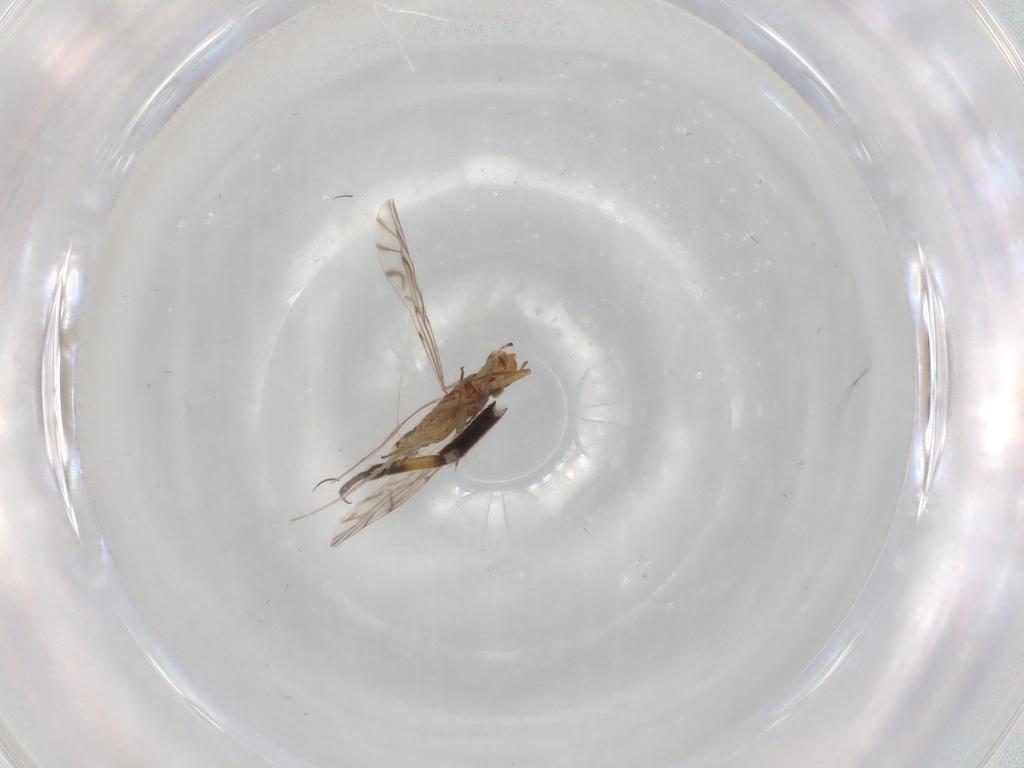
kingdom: Animalia
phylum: Arthropoda
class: Insecta
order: Psocodea
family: Lachesillidae
